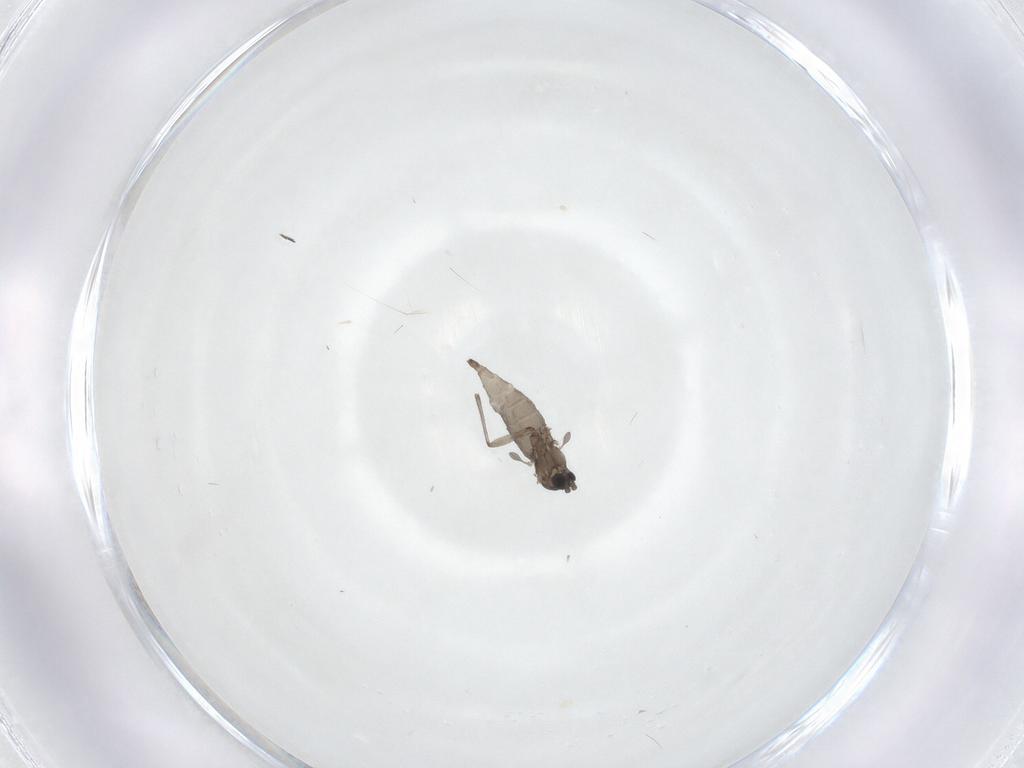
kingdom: Animalia
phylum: Arthropoda
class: Insecta
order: Diptera
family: Sciaridae
